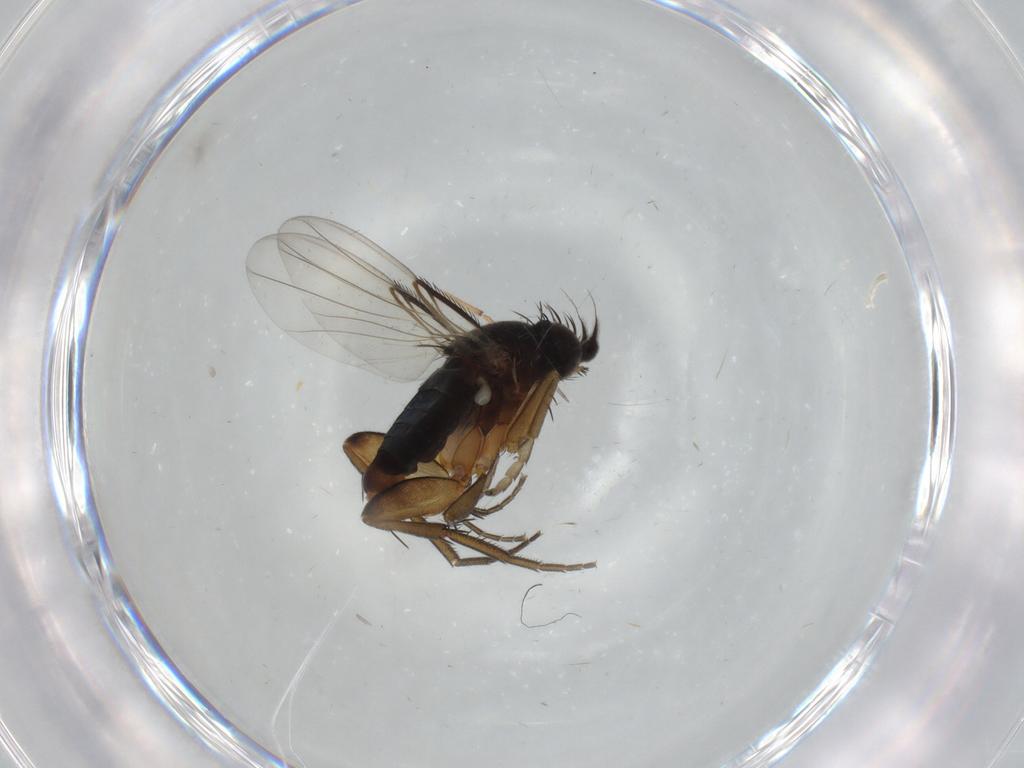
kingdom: Animalia
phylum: Arthropoda
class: Insecta
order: Diptera
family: Phoridae
